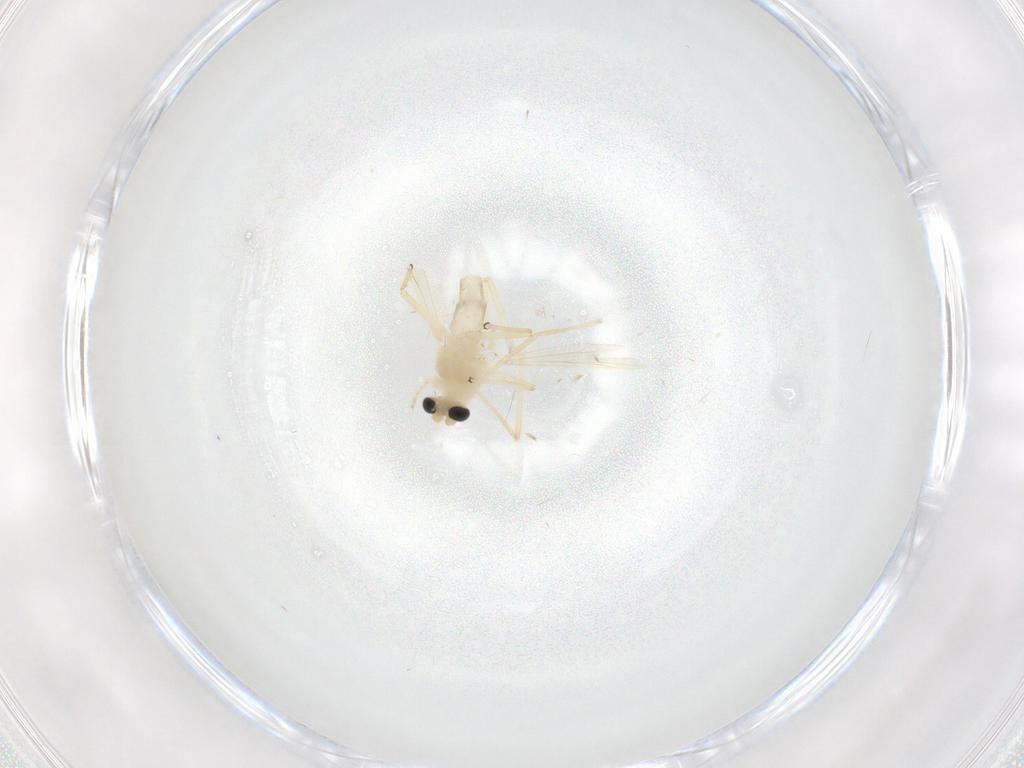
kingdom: Animalia
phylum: Arthropoda
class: Insecta
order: Diptera
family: Chironomidae
